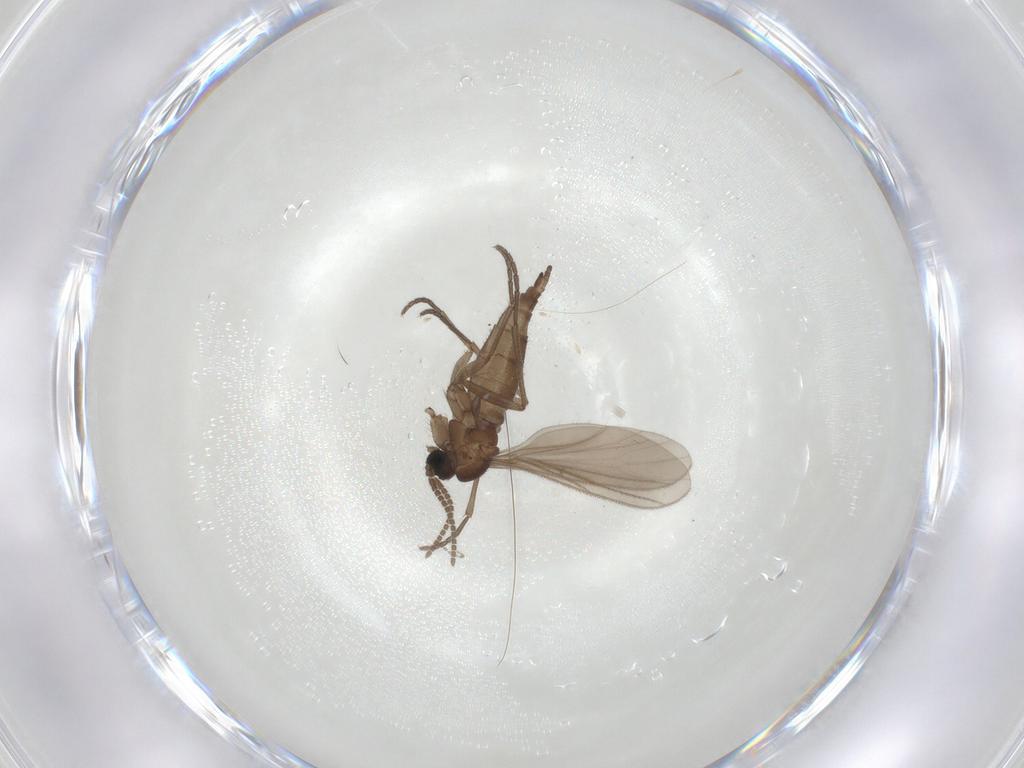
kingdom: Animalia
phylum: Arthropoda
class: Insecta
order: Diptera
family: Sciaridae
